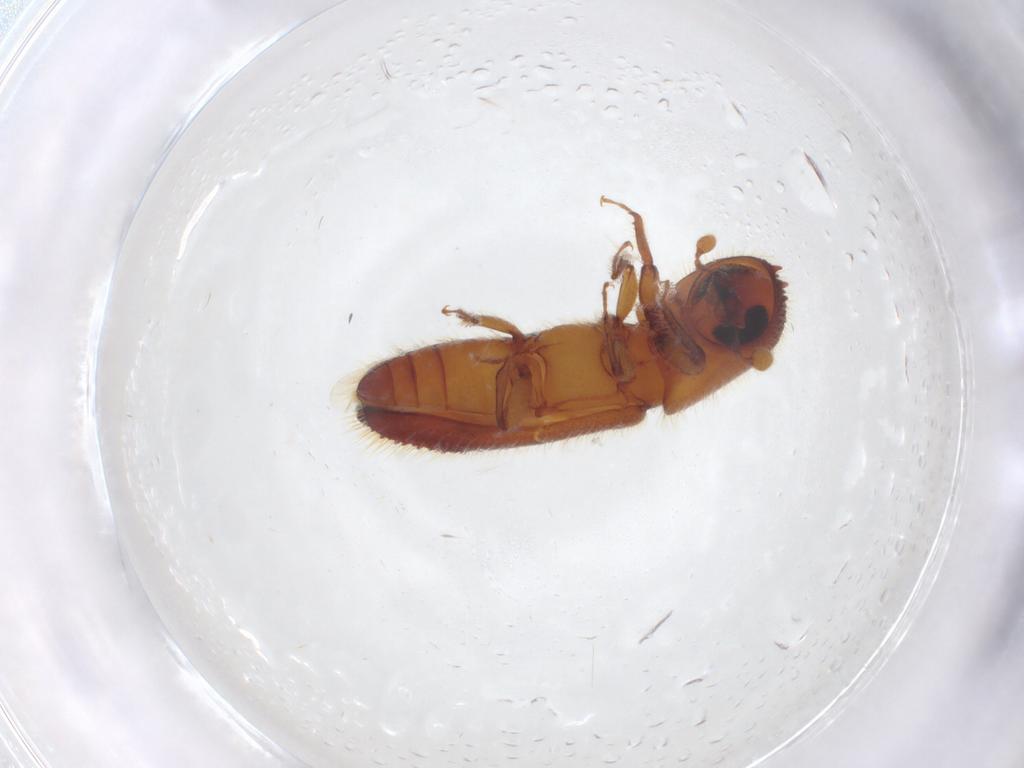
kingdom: Animalia
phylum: Arthropoda
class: Insecta
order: Coleoptera
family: Curculionidae
